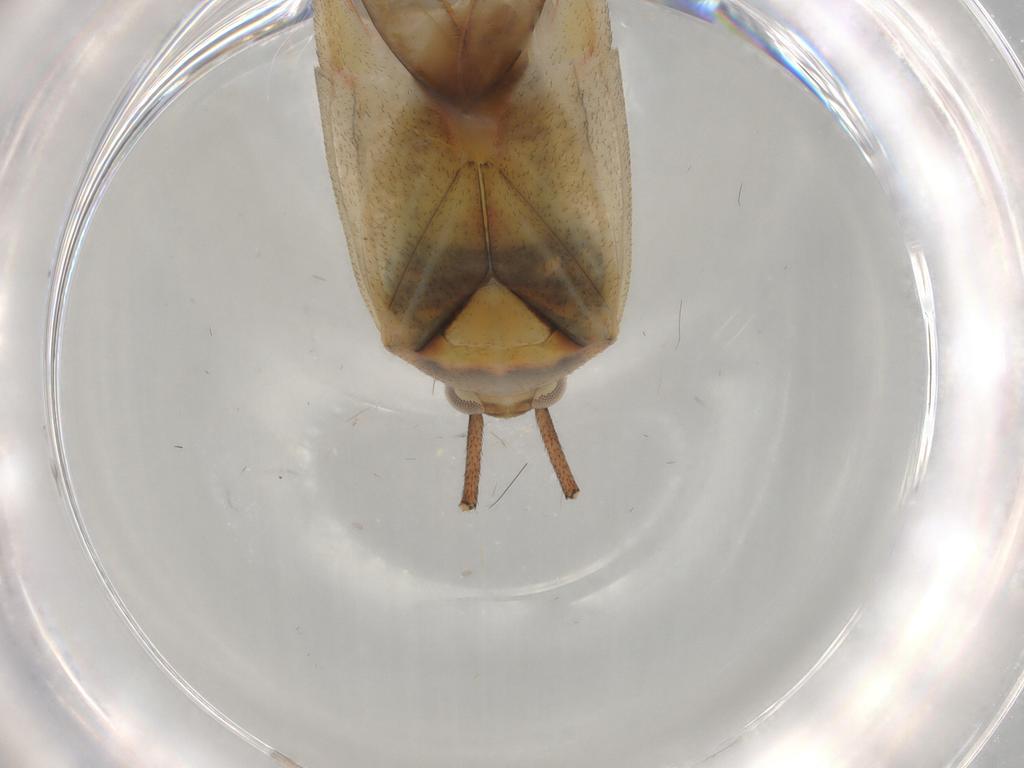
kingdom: Animalia
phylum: Arthropoda
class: Insecta
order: Hemiptera
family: Miridae
